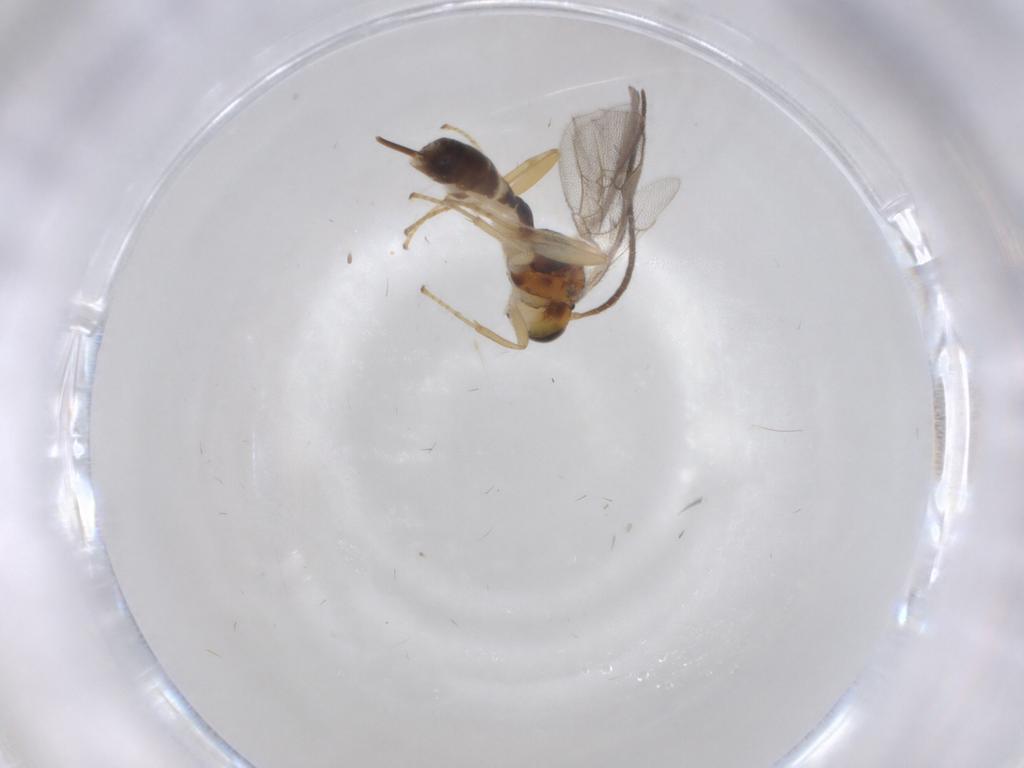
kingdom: Animalia
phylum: Arthropoda
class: Insecta
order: Hymenoptera
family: Ichneumonidae
